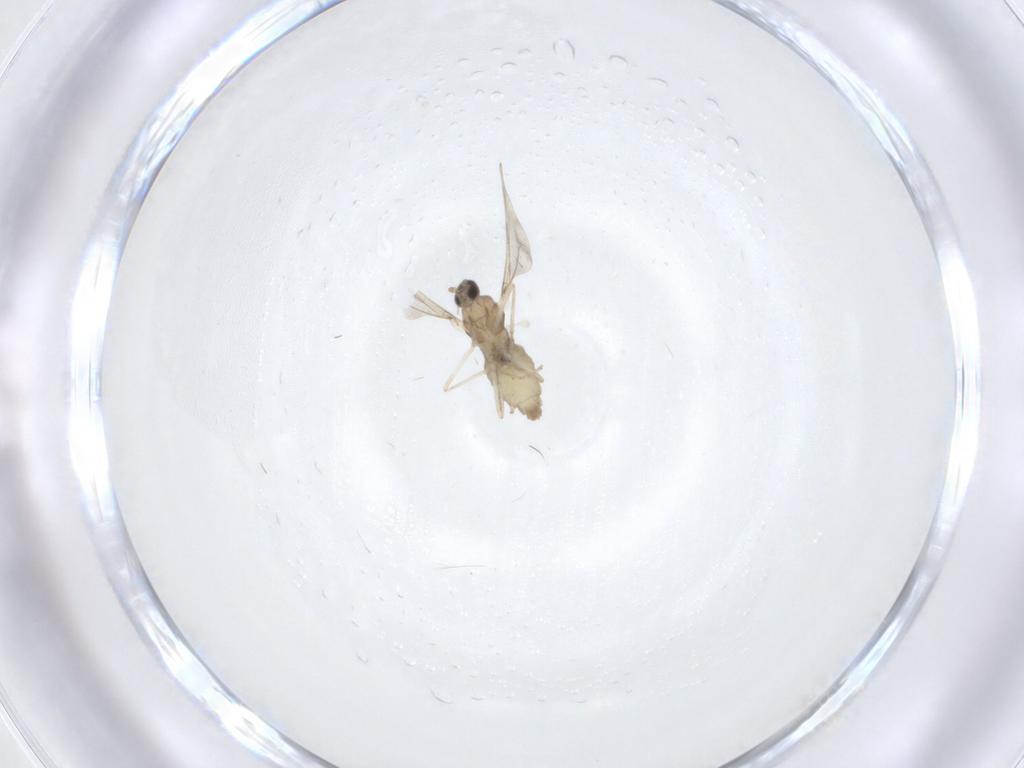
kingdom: Animalia
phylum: Arthropoda
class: Insecta
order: Diptera
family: Cecidomyiidae
